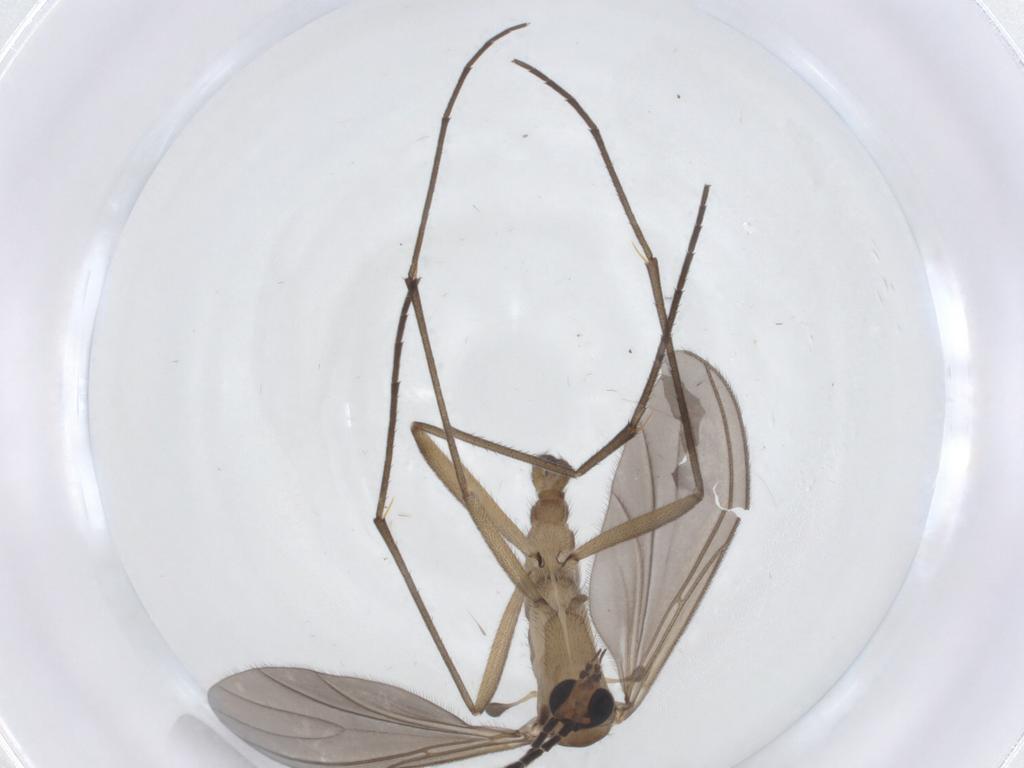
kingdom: Animalia
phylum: Arthropoda
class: Insecta
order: Diptera
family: Sciaridae
